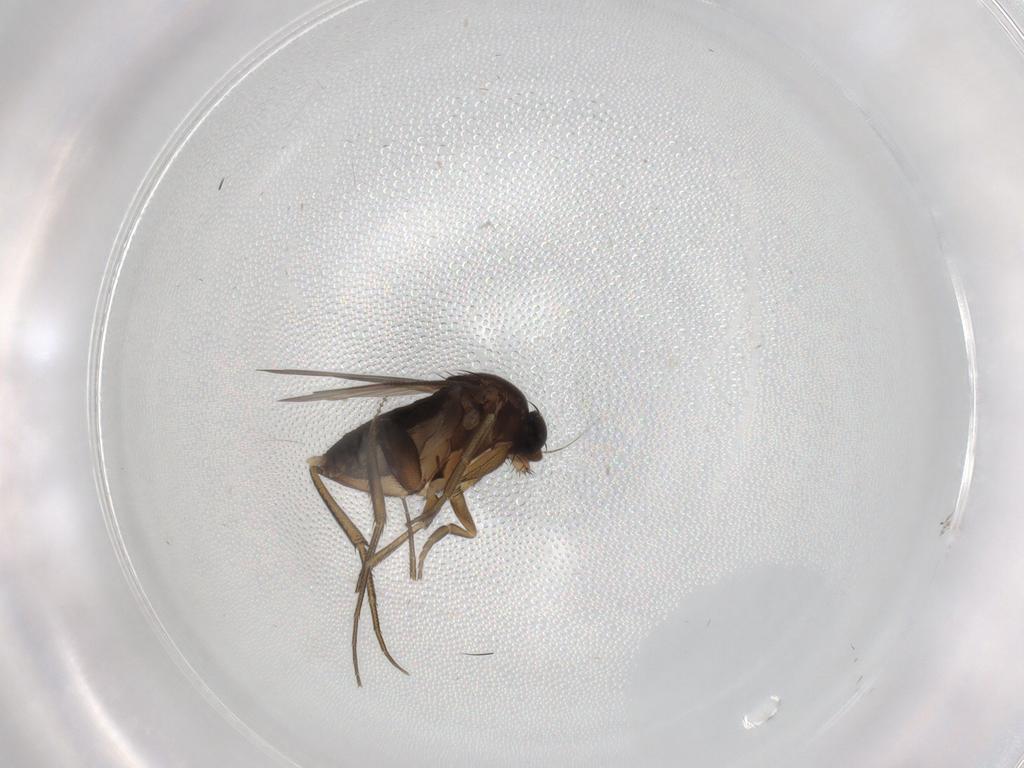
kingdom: Animalia
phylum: Arthropoda
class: Insecta
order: Diptera
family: Phoridae
